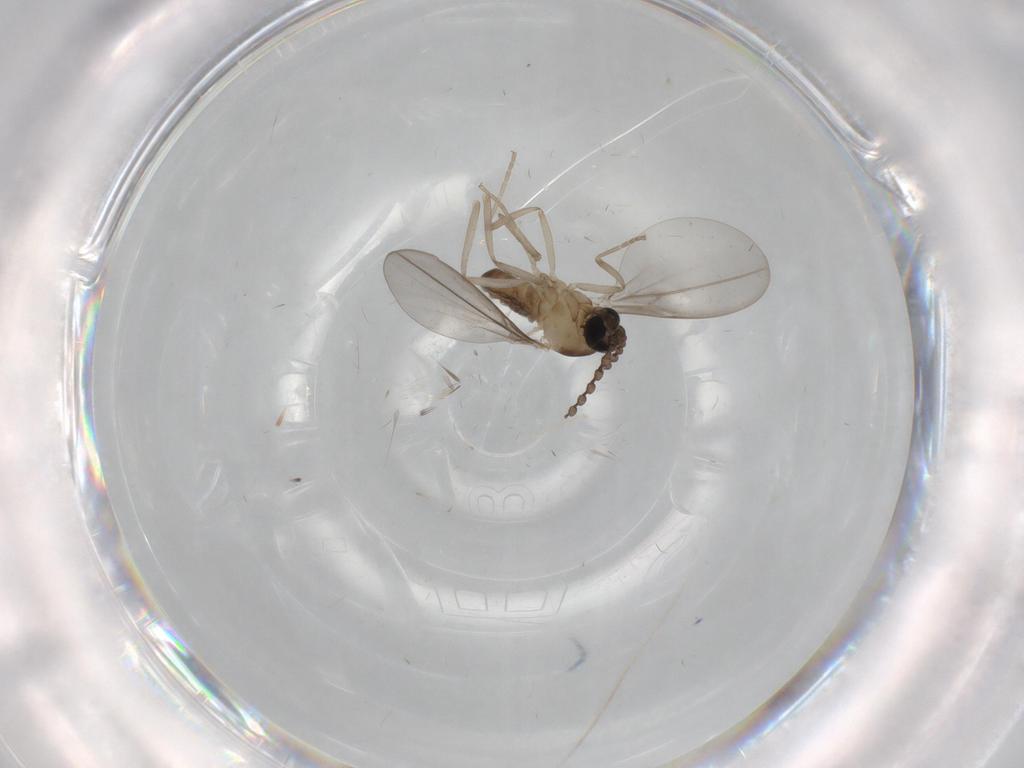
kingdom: Animalia
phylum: Arthropoda
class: Insecta
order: Diptera
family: Cecidomyiidae
